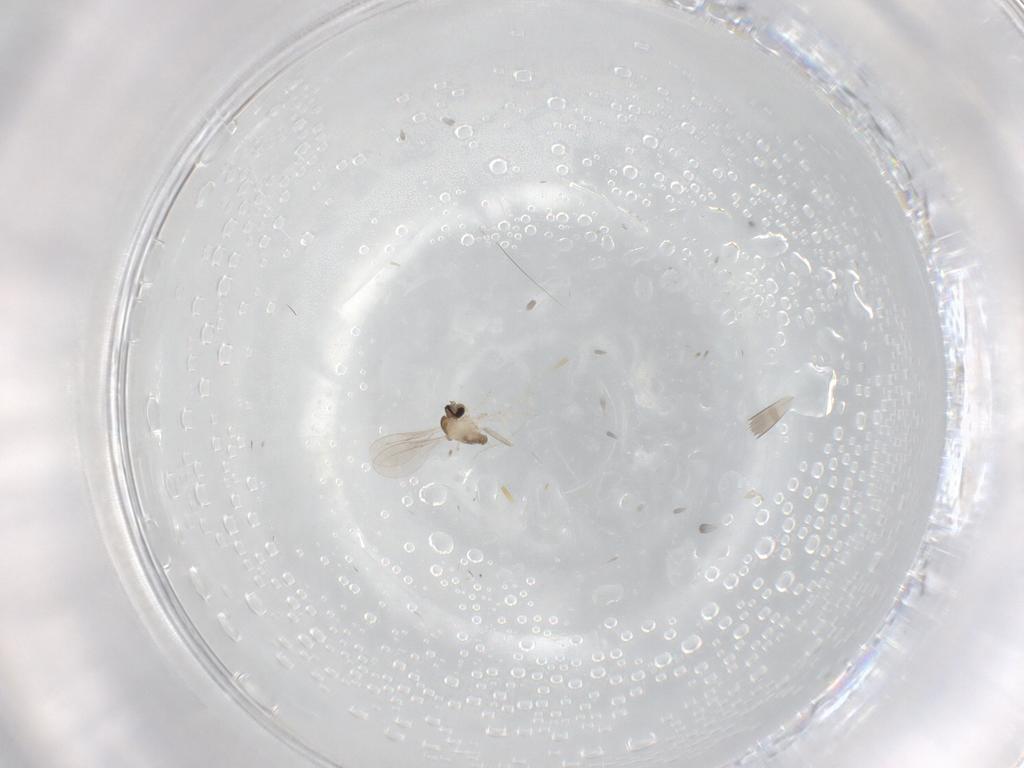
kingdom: Animalia
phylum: Arthropoda
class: Insecta
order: Diptera
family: Cecidomyiidae
